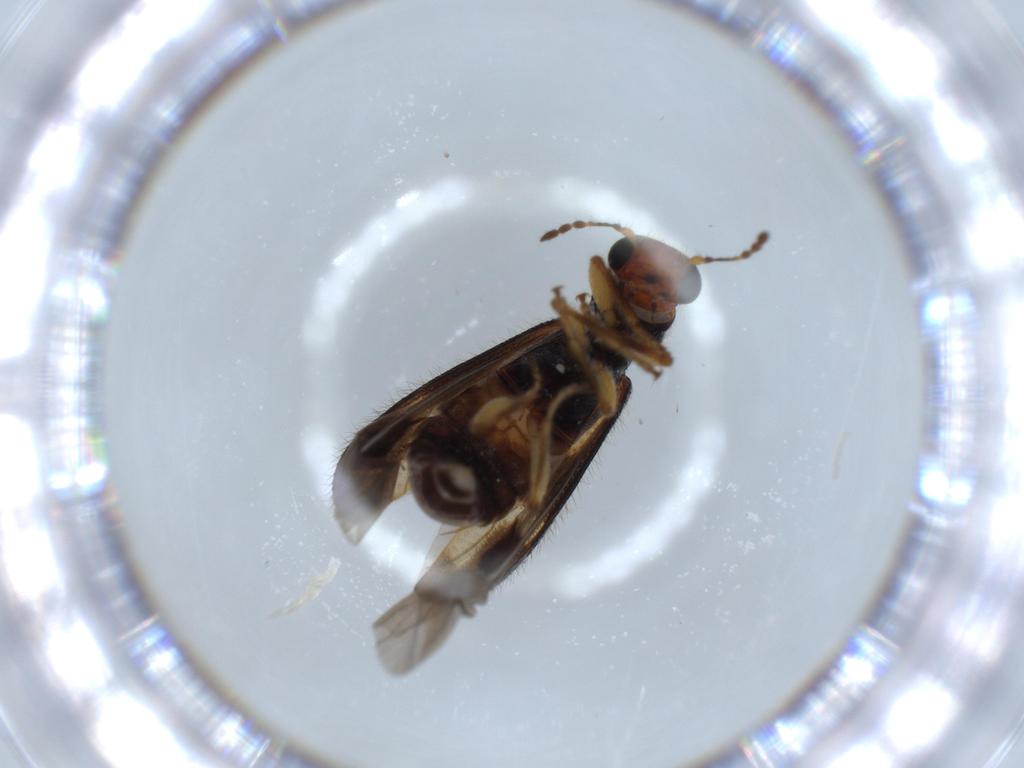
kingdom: Animalia
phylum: Arthropoda
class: Insecta
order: Coleoptera
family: Cleridae
